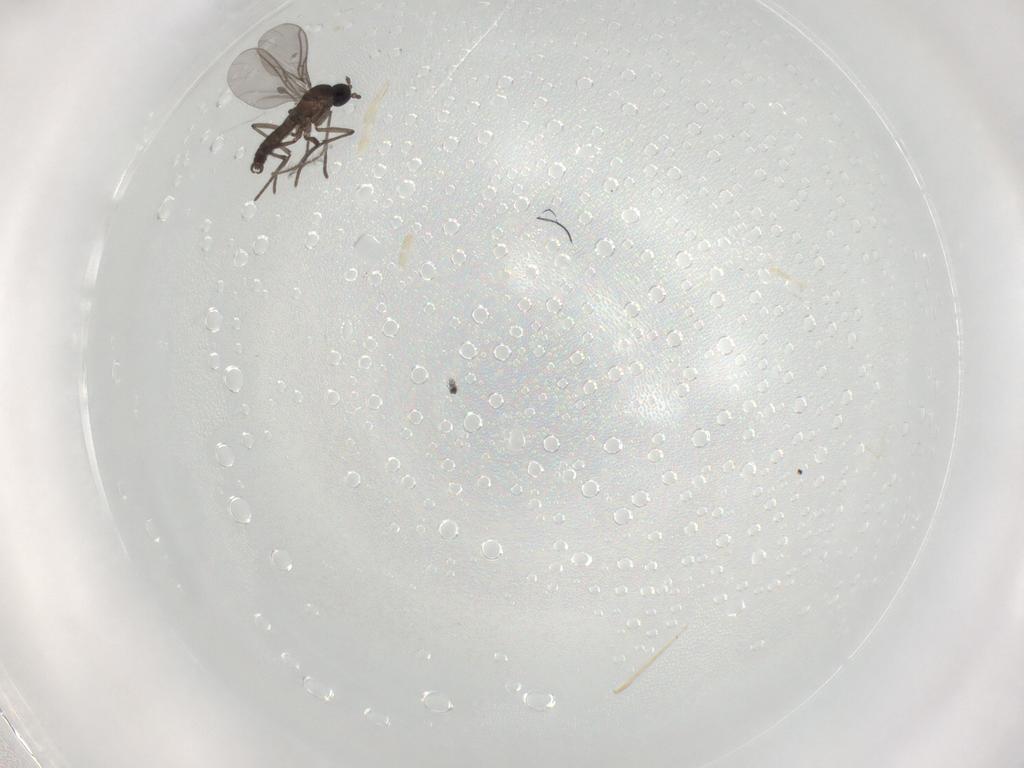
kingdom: Animalia
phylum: Arthropoda
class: Insecta
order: Diptera
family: Ceratopogonidae
